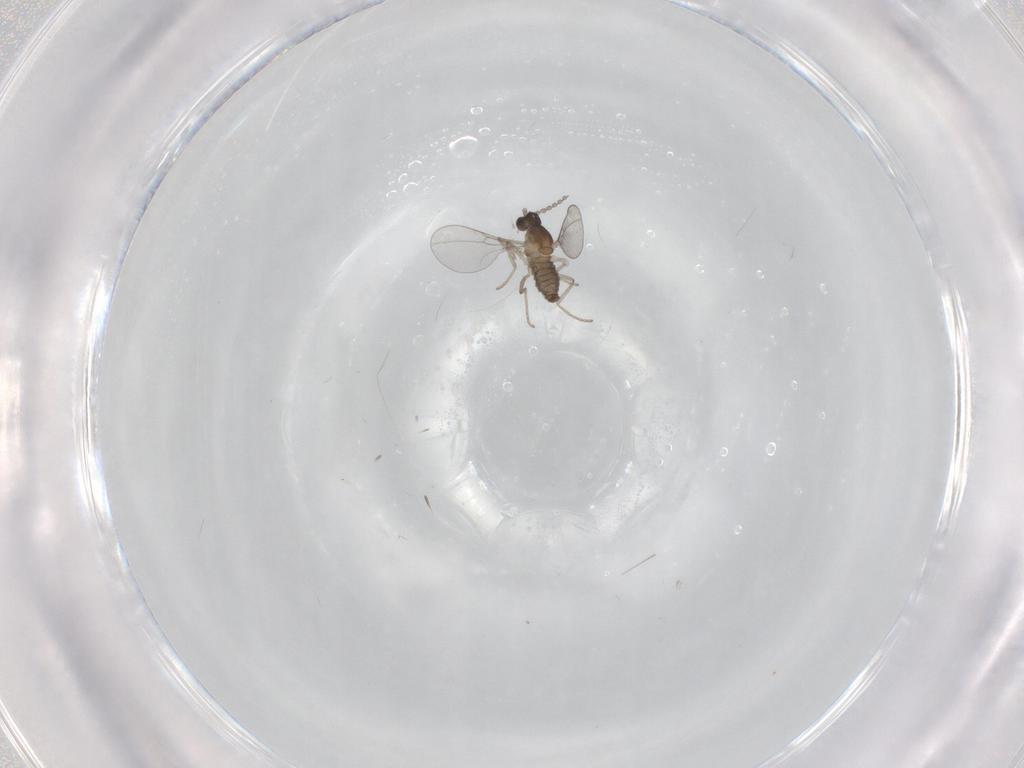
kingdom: Animalia
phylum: Arthropoda
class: Insecta
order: Diptera
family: Cecidomyiidae
